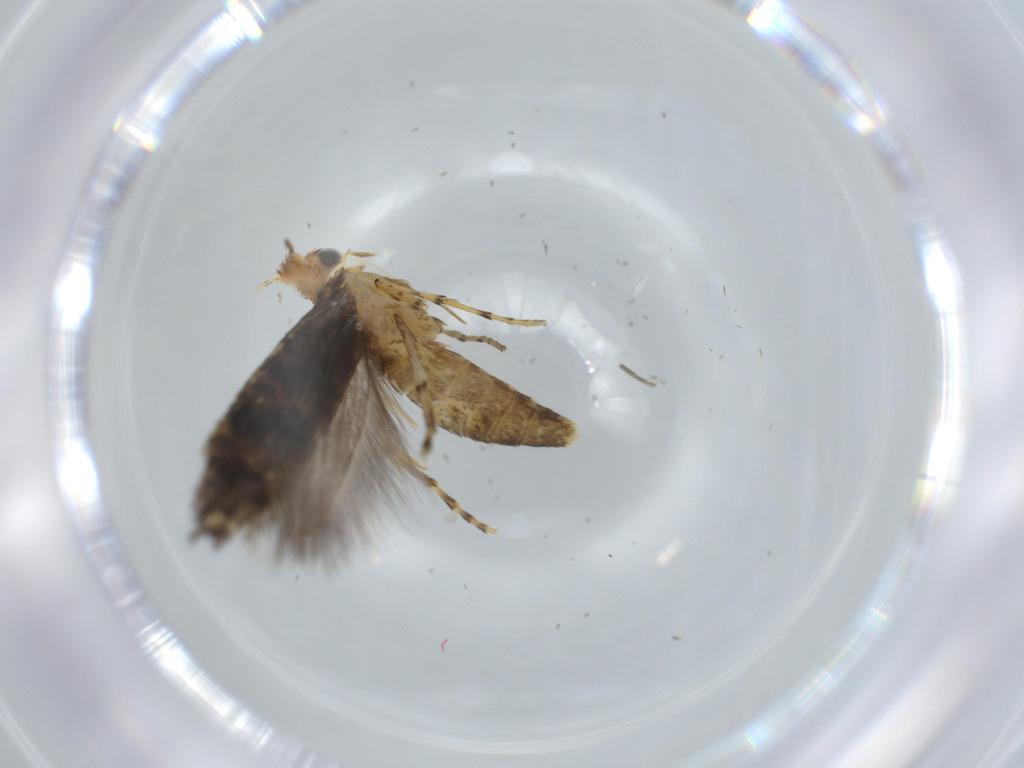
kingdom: Animalia
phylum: Arthropoda
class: Insecta
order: Lepidoptera
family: Argyresthiidae
